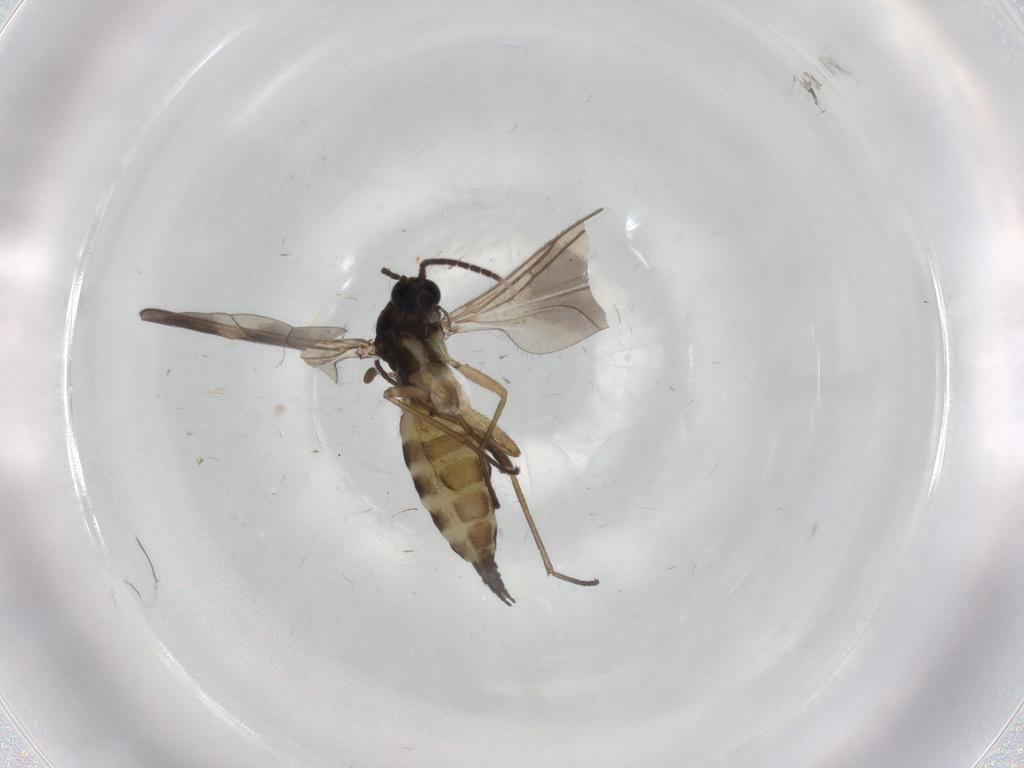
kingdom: Animalia
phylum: Arthropoda
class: Insecta
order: Diptera
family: Sciaridae
